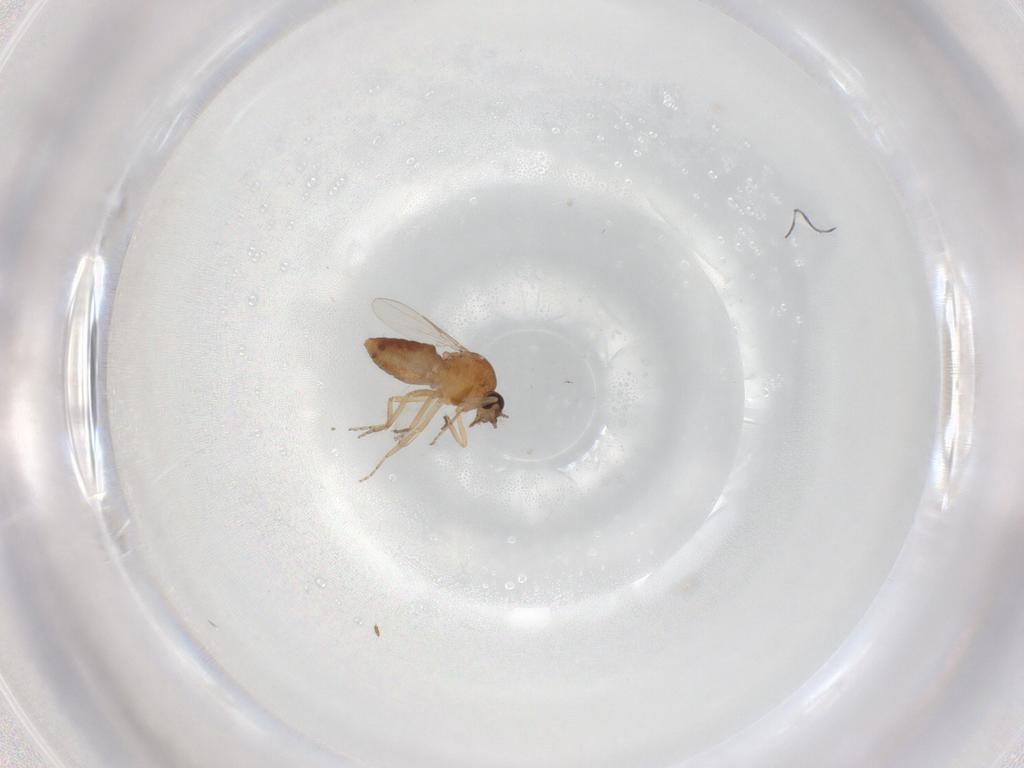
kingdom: Animalia
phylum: Arthropoda
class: Insecta
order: Diptera
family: Ceratopogonidae
